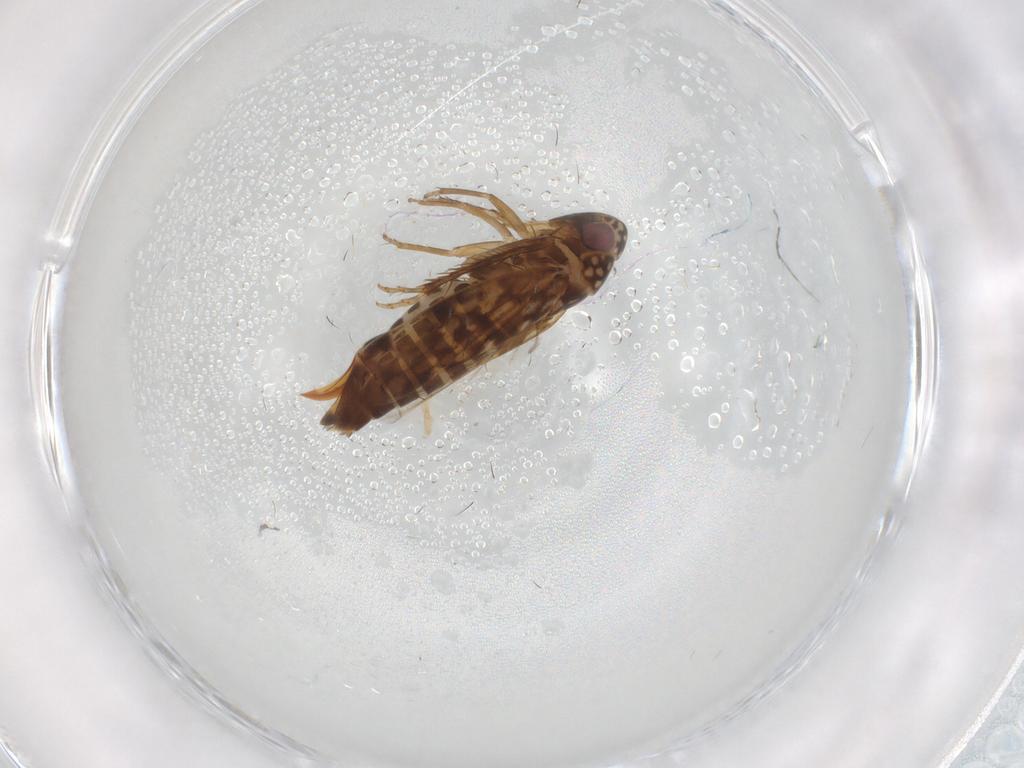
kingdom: Animalia
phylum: Arthropoda
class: Insecta
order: Hemiptera
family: Cicadellidae
